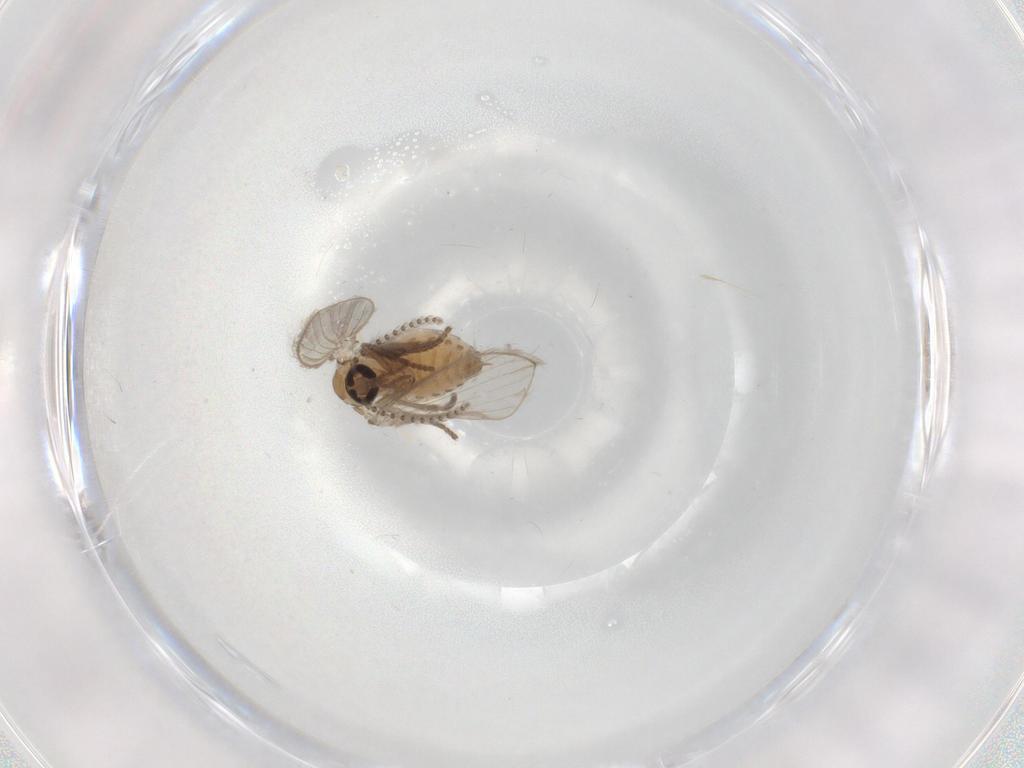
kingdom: Animalia
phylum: Arthropoda
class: Insecta
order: Diptera
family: Psychodidae
